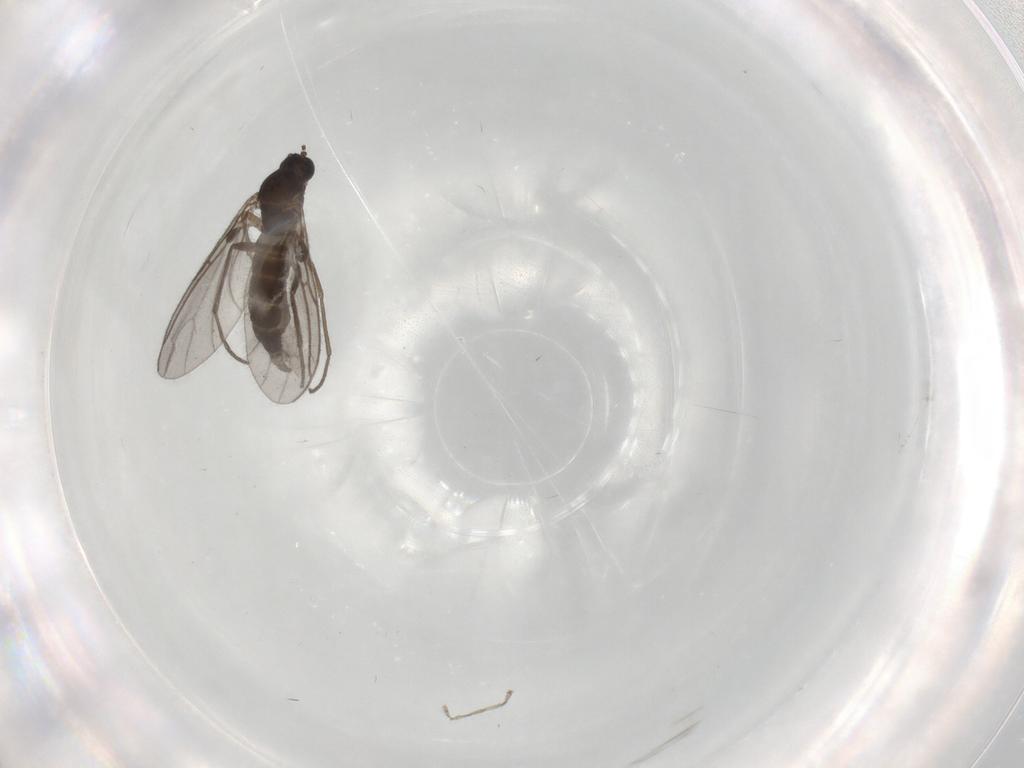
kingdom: Animalia
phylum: Arthropoda
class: Insecta
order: Diptera
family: Sciaridae
